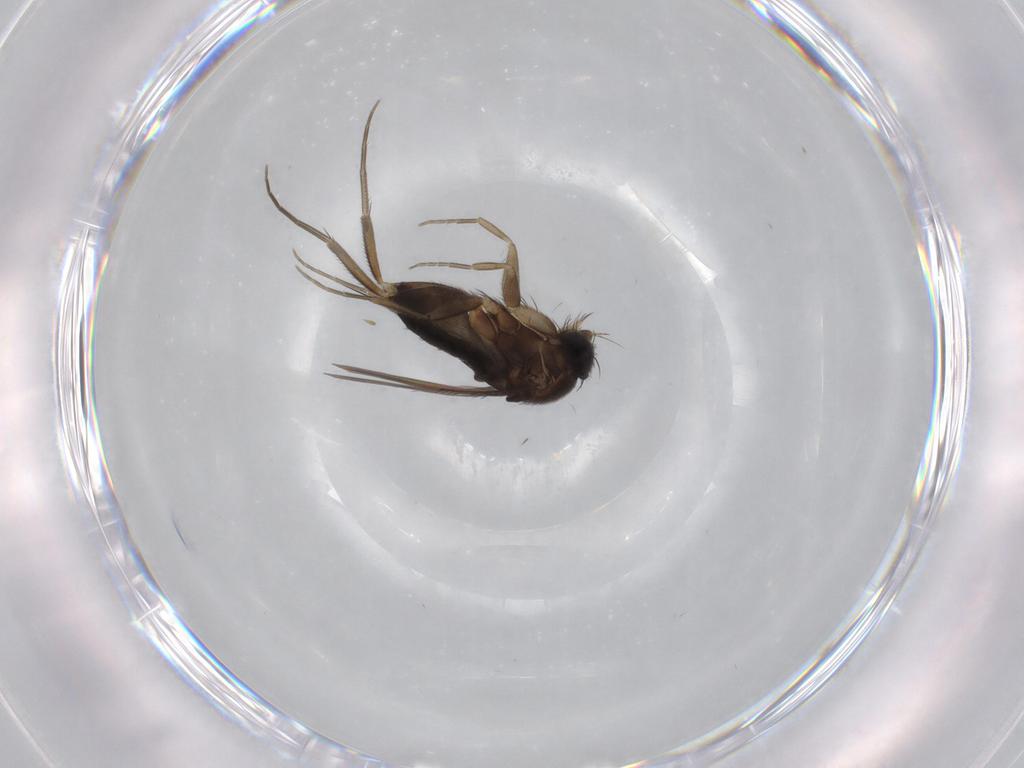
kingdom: Animalia
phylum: Arthropoda
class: Insecta
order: Diptera
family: Phoridae
